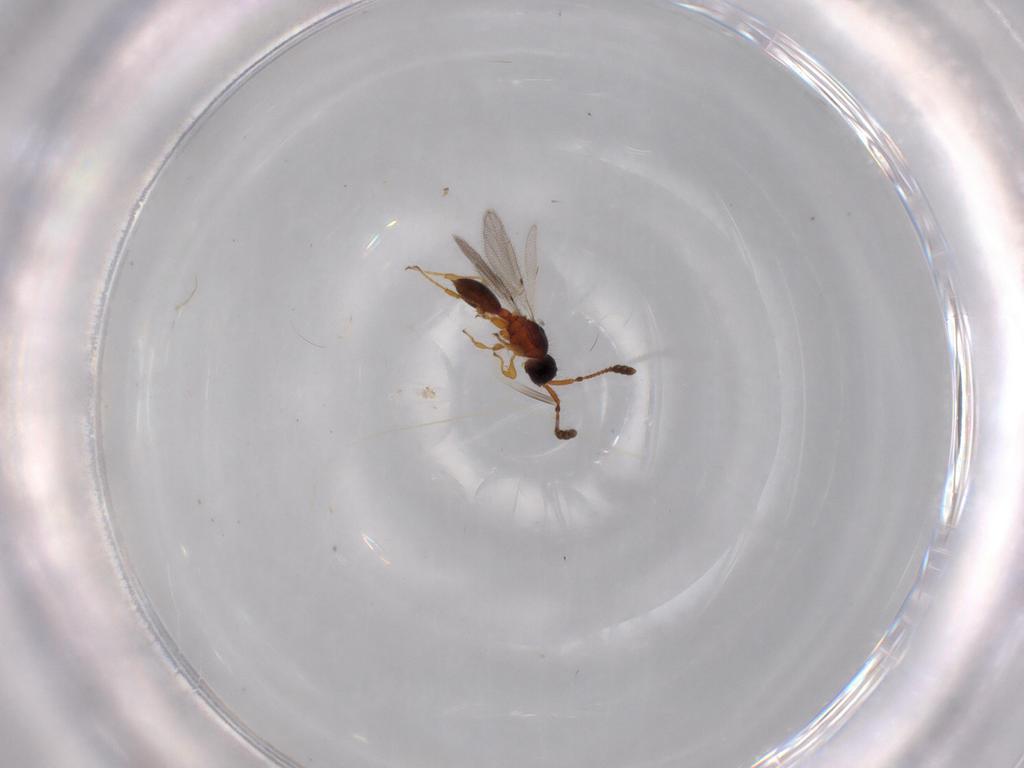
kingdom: Animalia
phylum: Arthropoda
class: Insecta
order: Hymenoptera
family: Diapriidae
